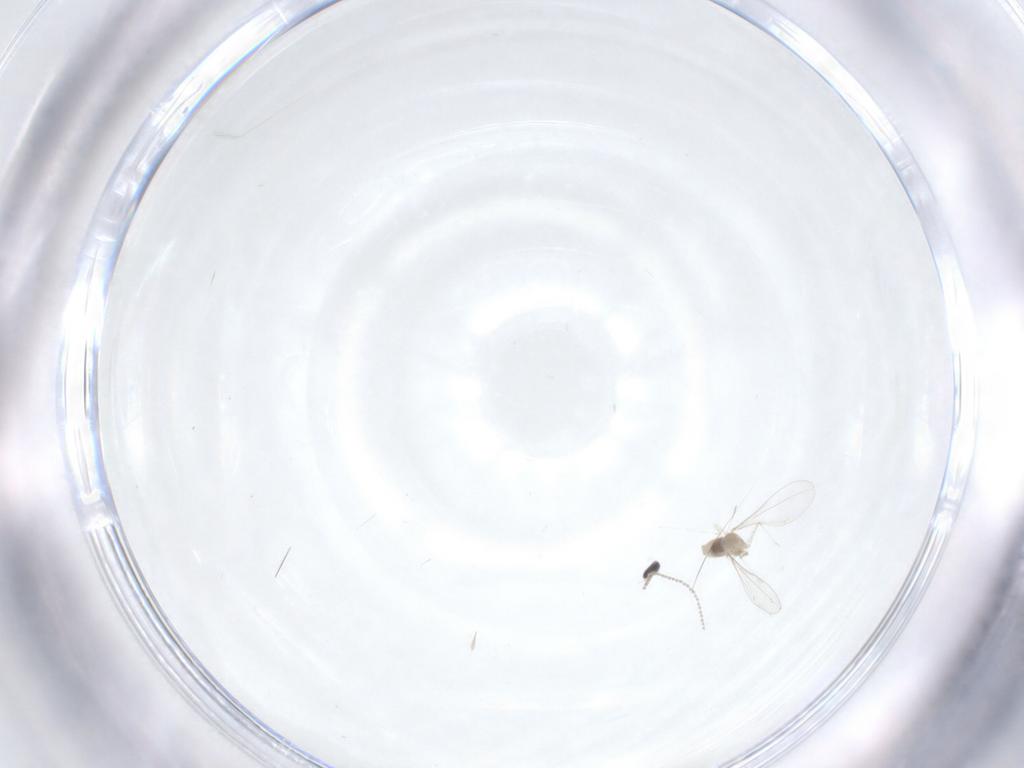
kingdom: Animalia
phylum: Arthropoda
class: Insecta
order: Diptera
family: Cecidomyiidae
